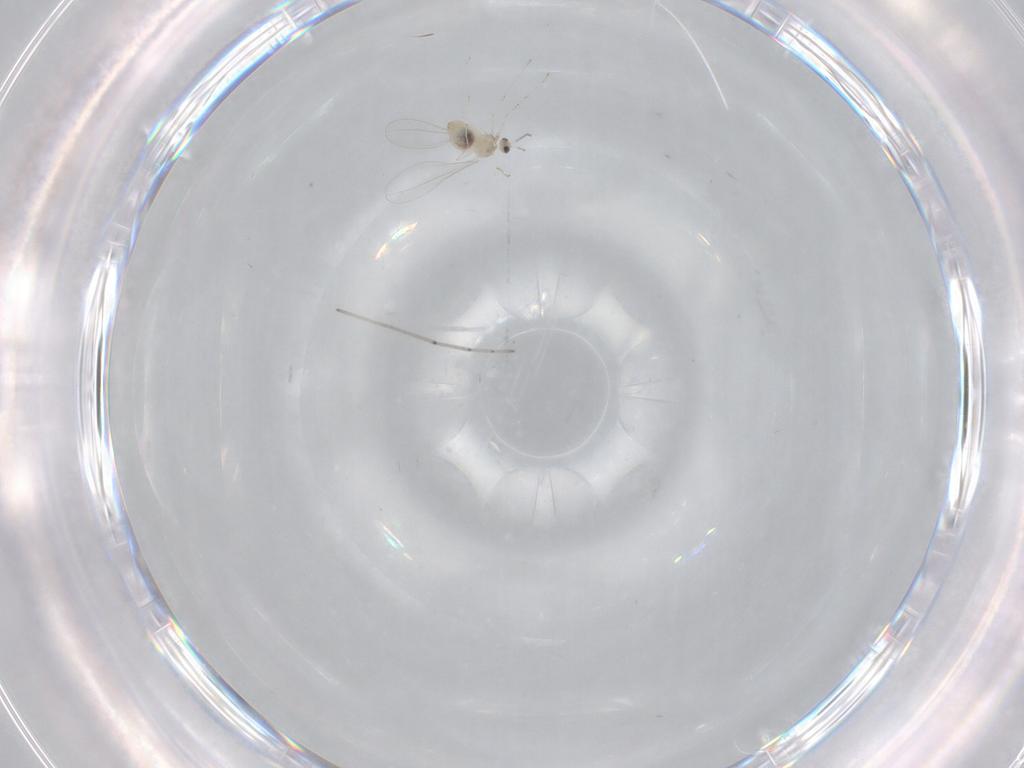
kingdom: Animalia
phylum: Arthropoda
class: Insecta
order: Diptera
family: Cecidomyiidae
